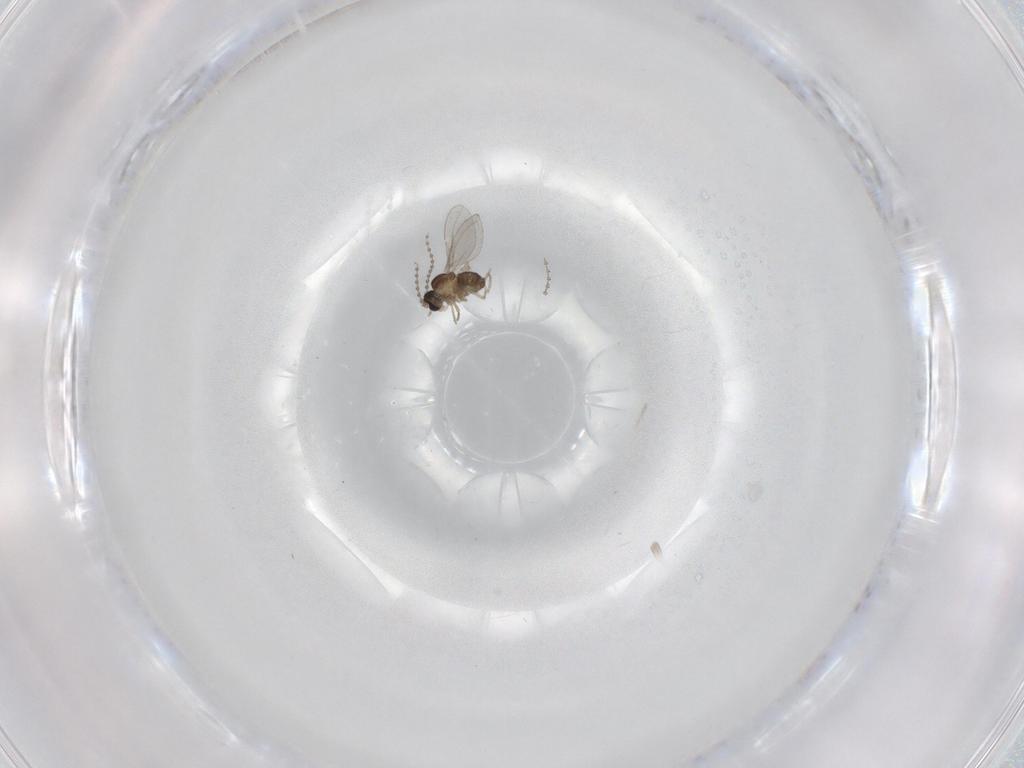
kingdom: Animalia
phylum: Arthropoda
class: Insecta
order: Diptera
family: Cecidomyiidae
